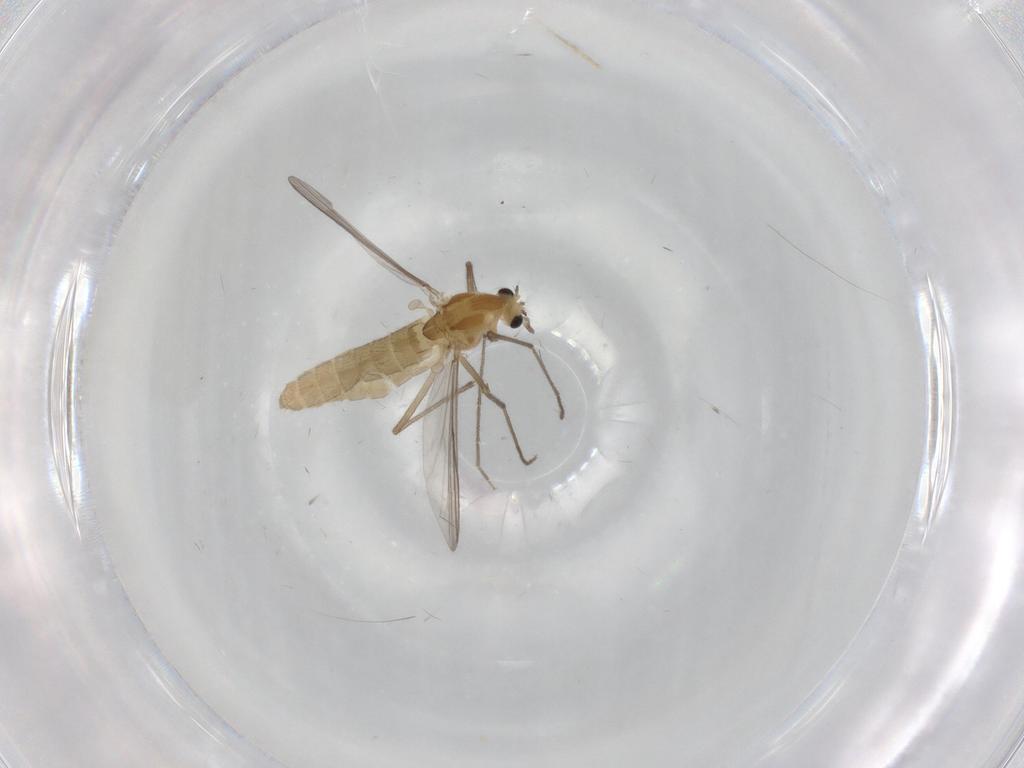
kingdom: Animalia
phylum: Arthropoda
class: Insecta
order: Diptera
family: Chironomidae
